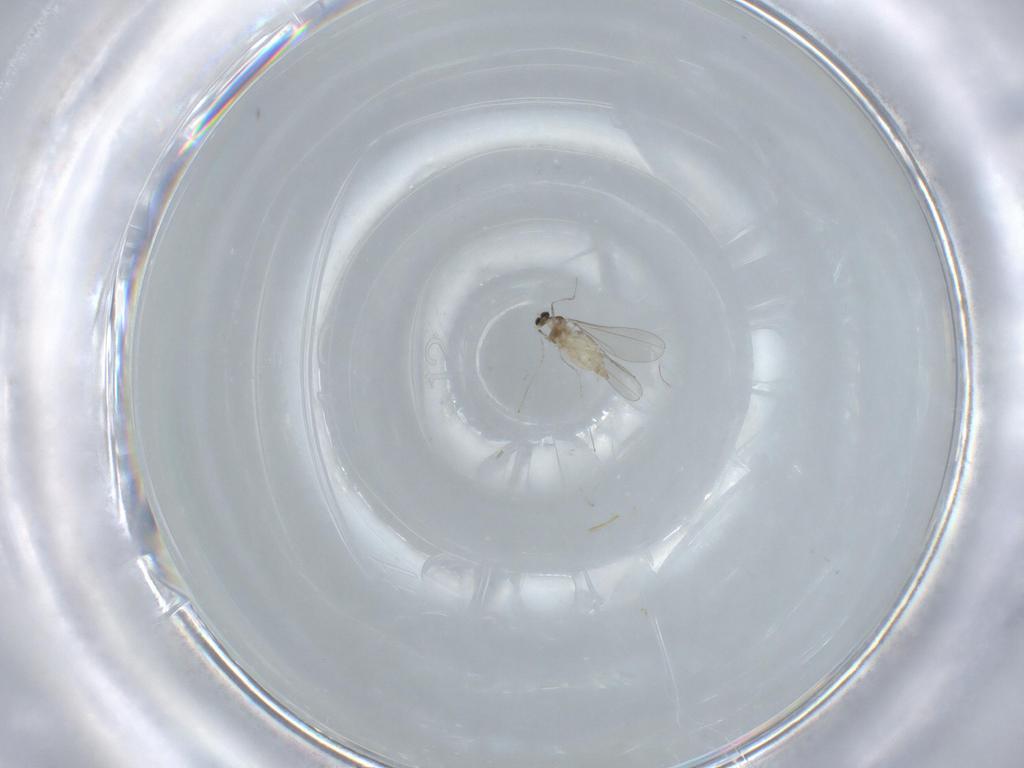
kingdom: Animalia
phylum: Arthropoda
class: Insecta
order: Diptera
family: Cecidomyiidae
